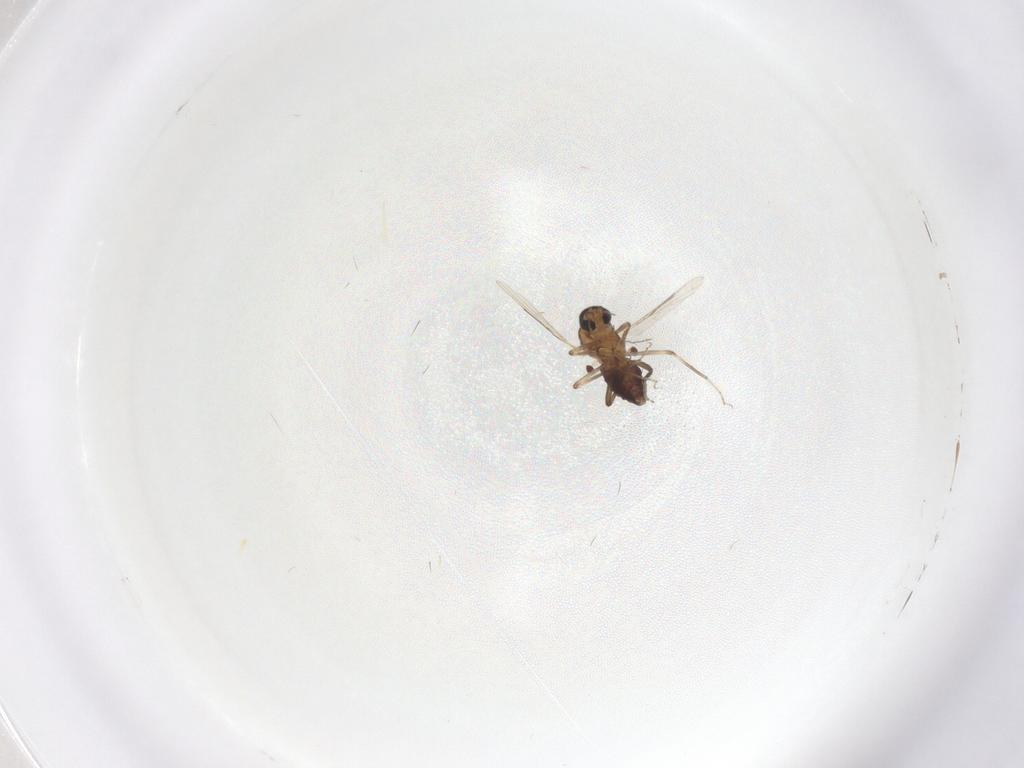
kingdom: Animalia
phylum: Arthropoda
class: Insecta
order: Diptera
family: Ceratopogonidae
